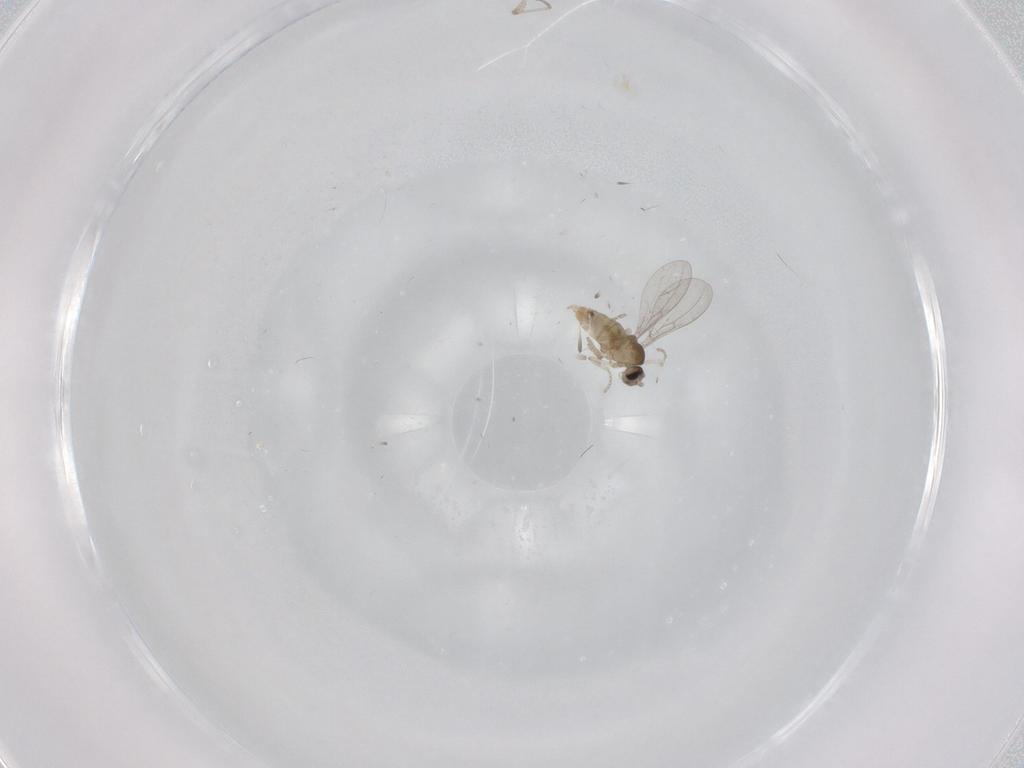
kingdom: Animalia
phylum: Arthropoda
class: Insecta
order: Diptera
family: Cecidomyiidae
